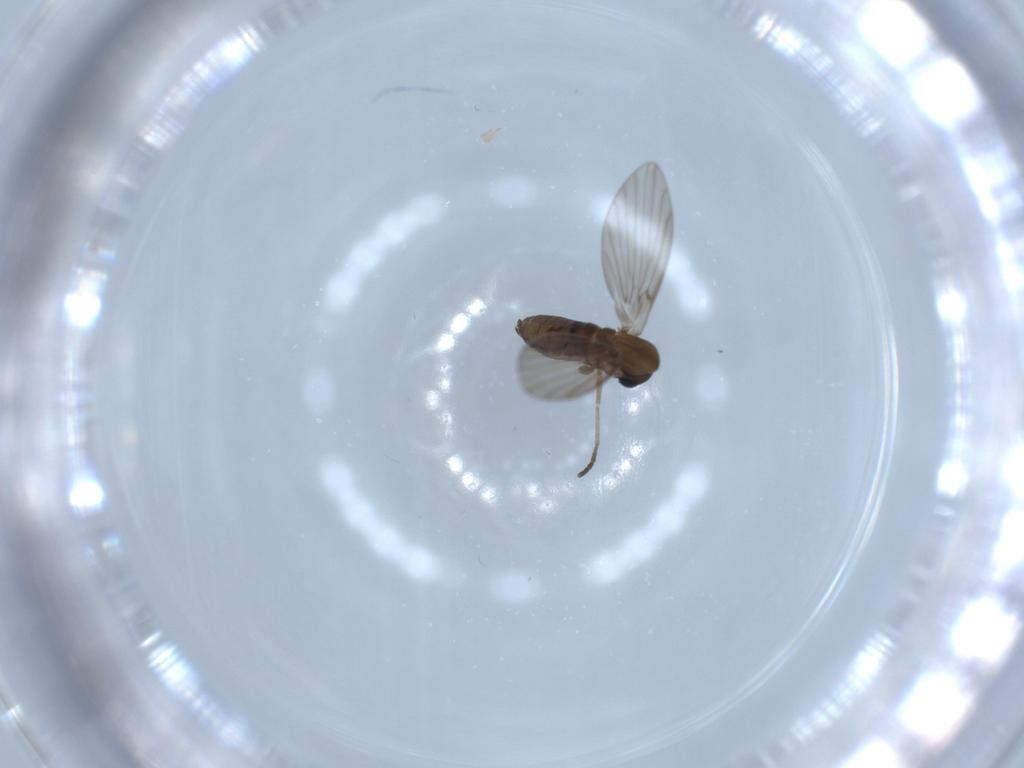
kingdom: Animalia
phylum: Arthropoda
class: Insecta
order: Diptera
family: Psychodidae
